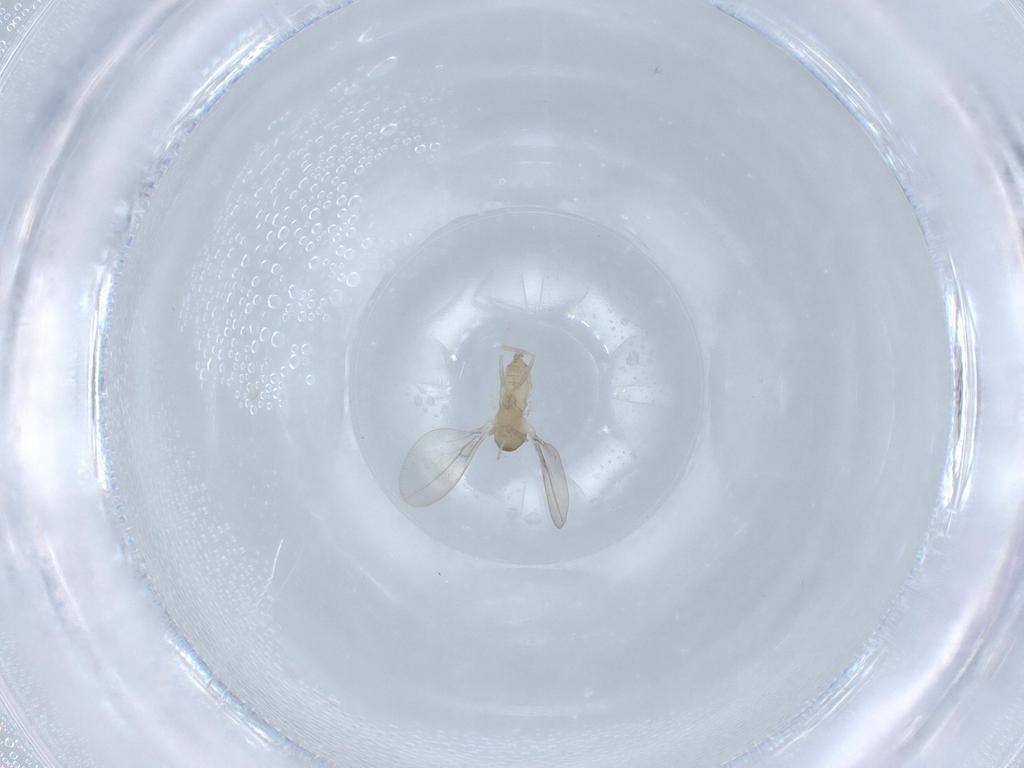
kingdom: Animalia
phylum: Arthropoda
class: Insecta
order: Diptera
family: Cecidomyiidae
